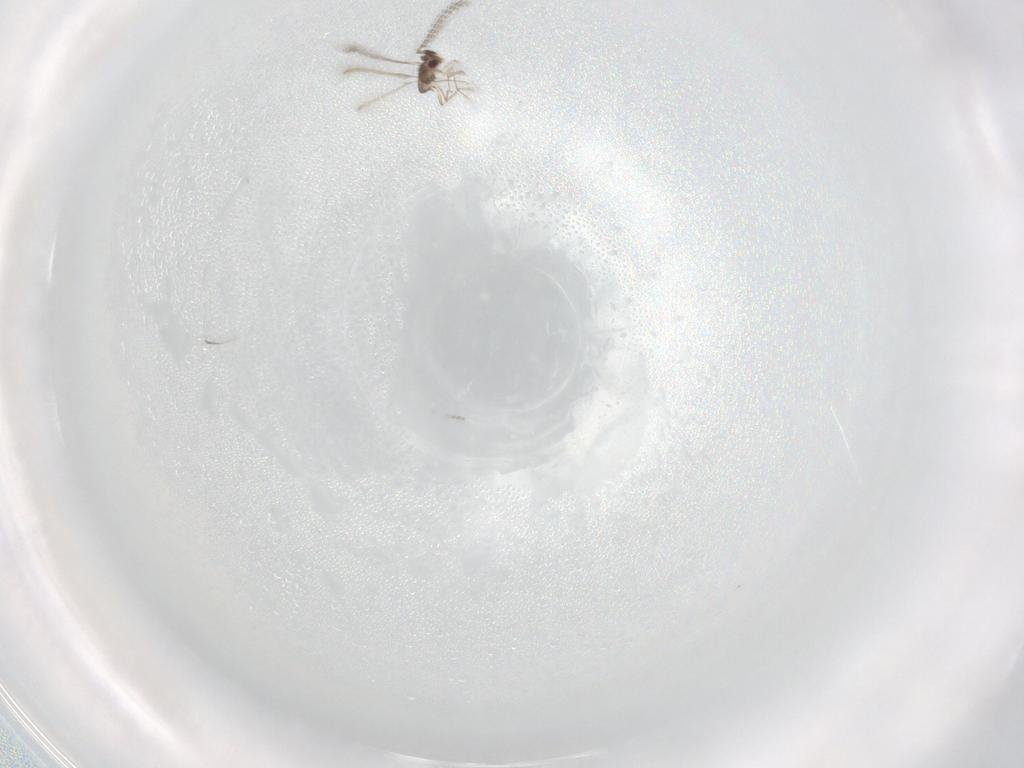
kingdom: Animalia
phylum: Arthropoda
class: Insecta
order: Hymenoptera
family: Mymaridae
